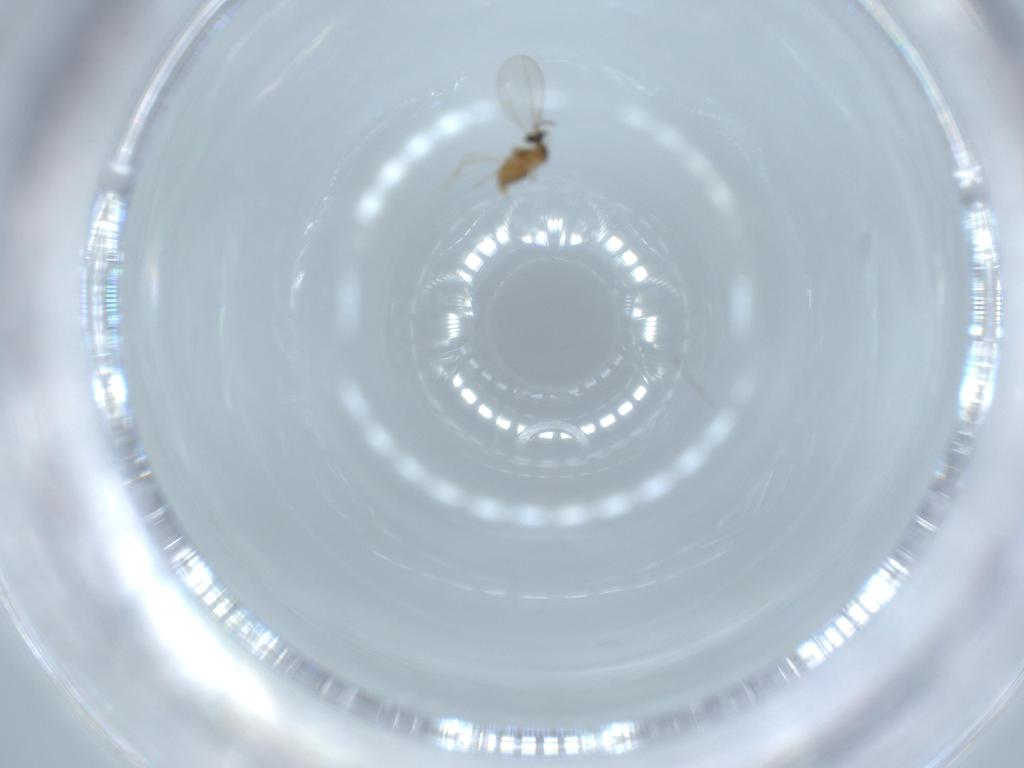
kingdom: Animalia
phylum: Arthropoda
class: Insecta
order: Diptera
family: Cecidomyiidae
